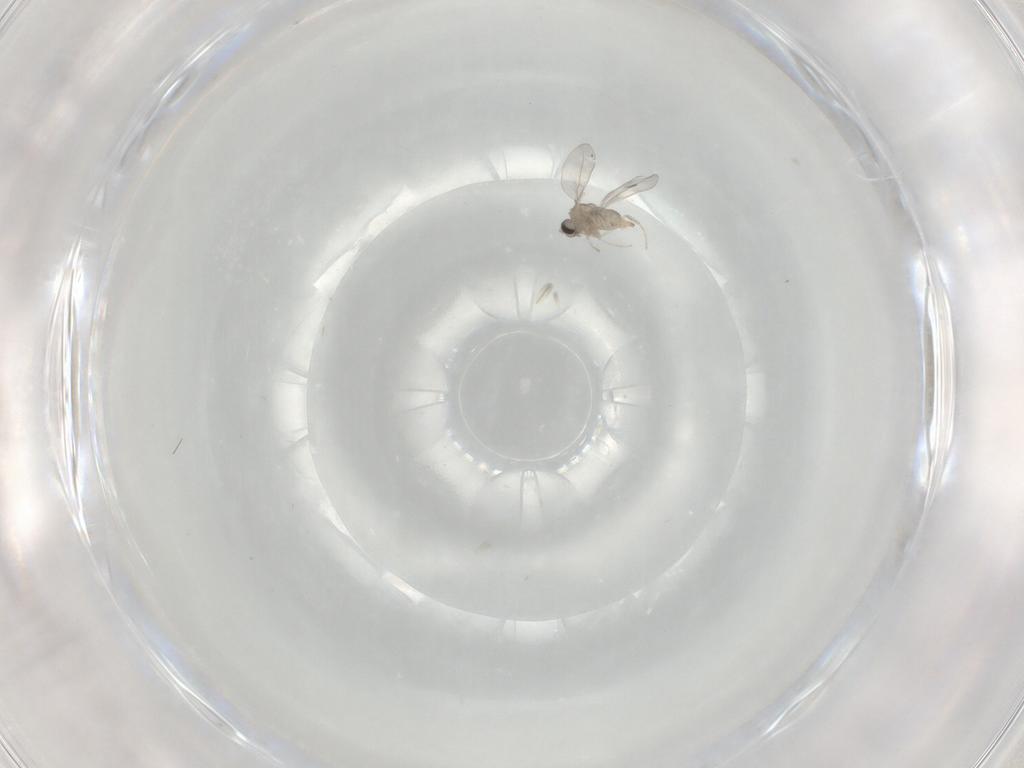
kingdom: Animalia
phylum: Arthropoda
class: Insecta
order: Diptera
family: Cecidomyiidae
